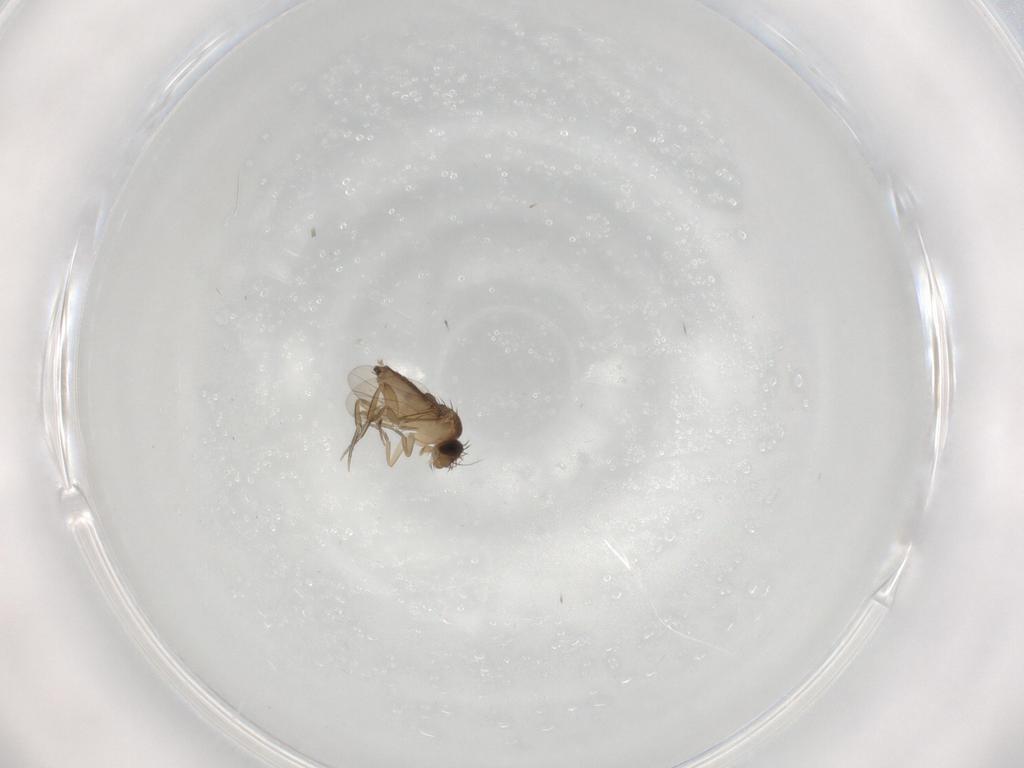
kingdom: Animalia
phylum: Arthropoda
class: Insecta
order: Diptera
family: Phoridae
